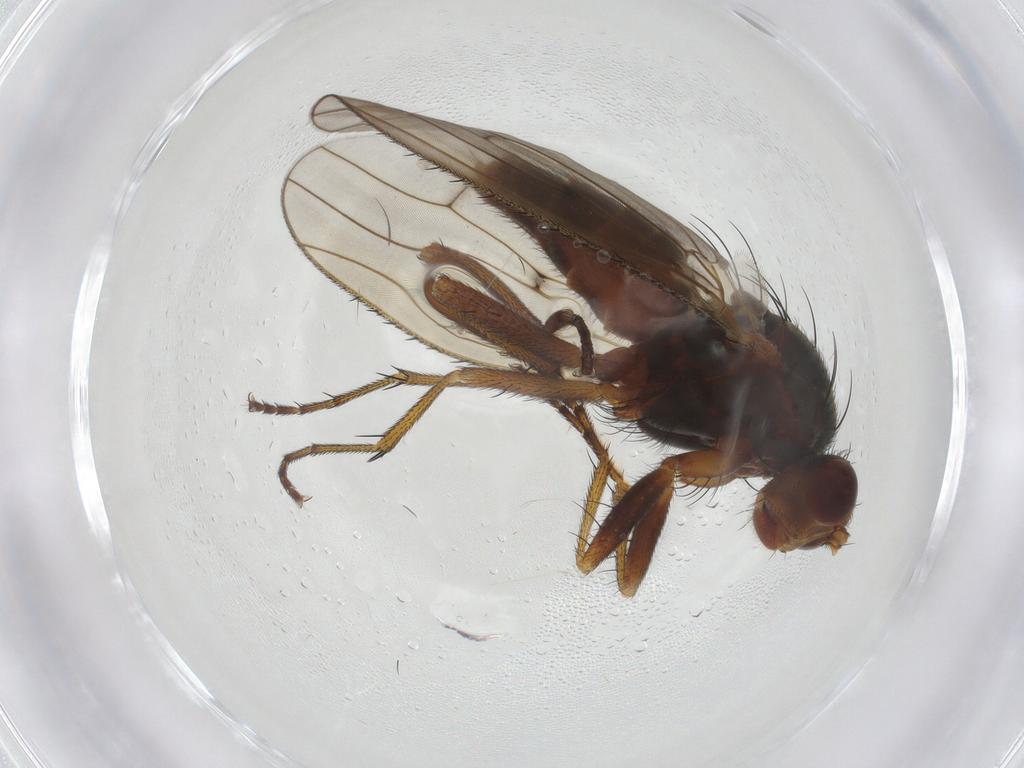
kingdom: Animalia
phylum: Arthropoda
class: Insecta
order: Diptera
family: Heleomyzidae
